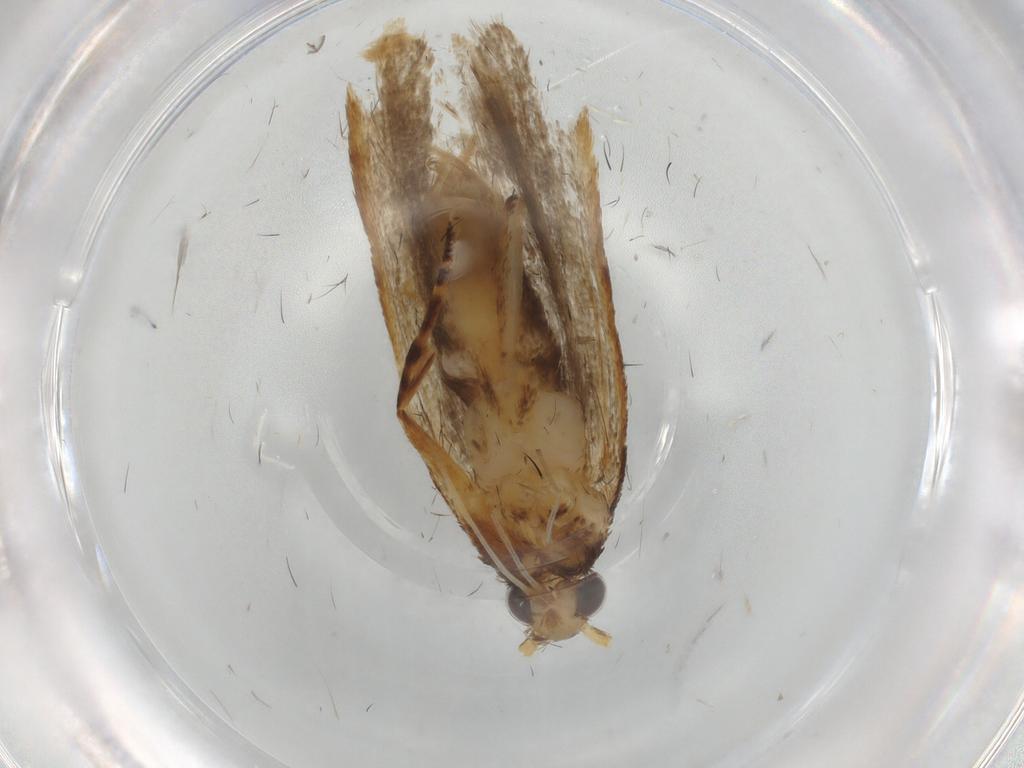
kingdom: Animalia
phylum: Arthropoda
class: Insecta
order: Lepidoptera
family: Lecithoceridae
